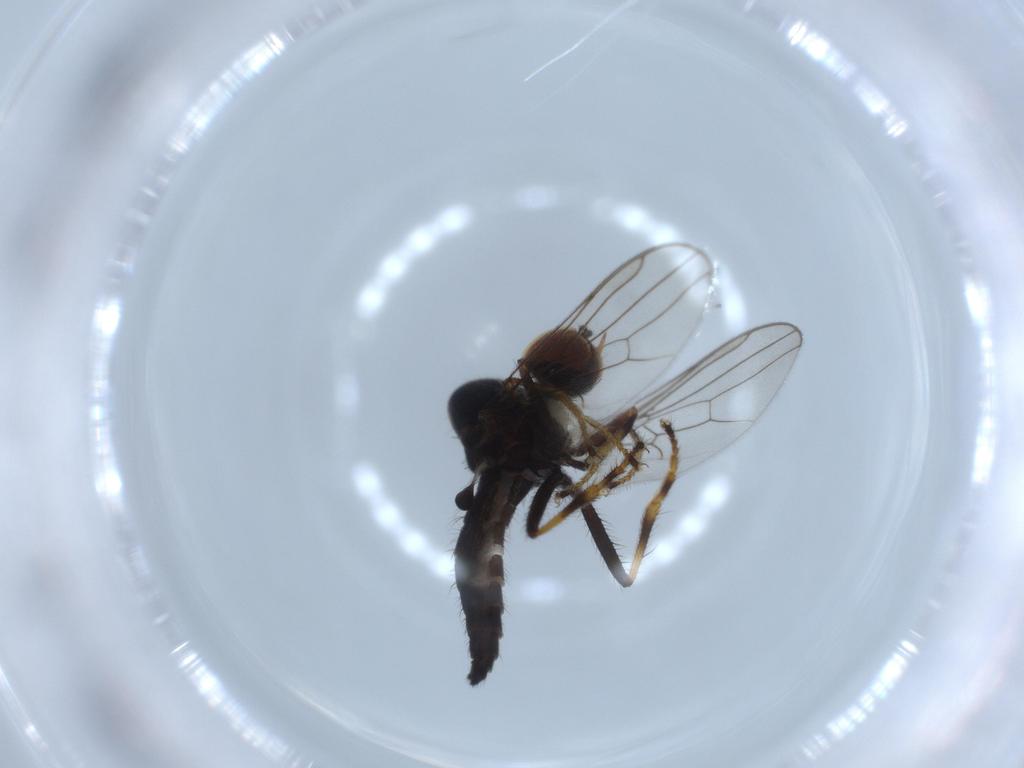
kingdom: Animalia
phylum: Arthropoda
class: Insecta
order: Diptera
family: Hybotidae
